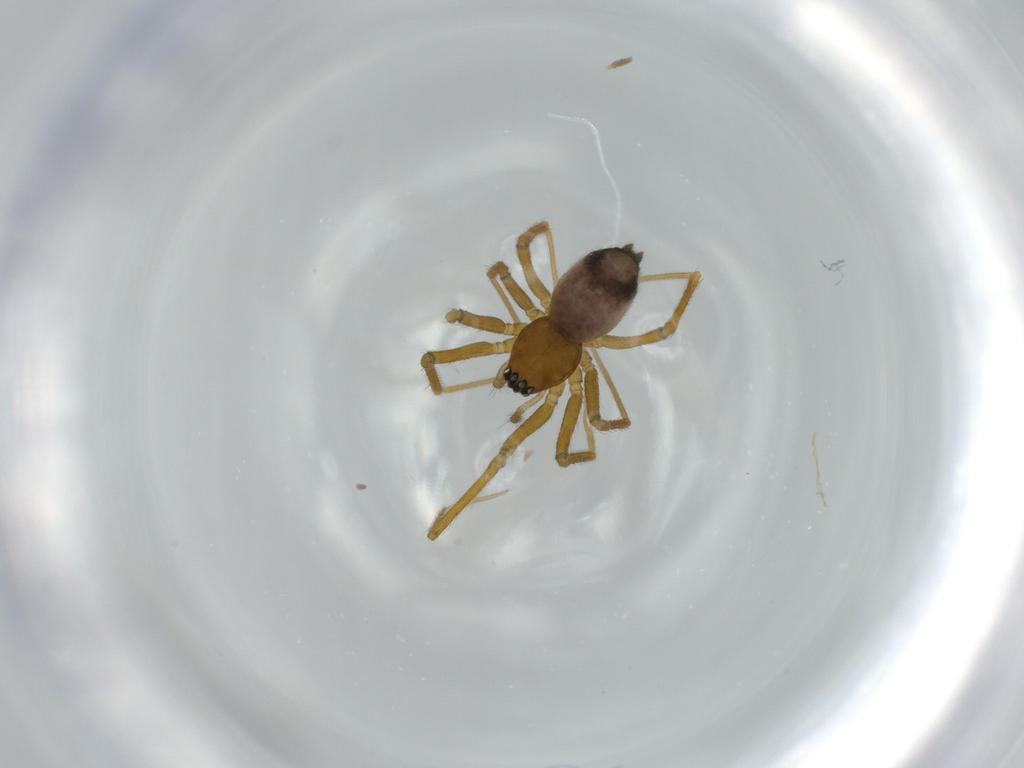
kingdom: Animalia
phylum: Arthropoda
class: Arachnida
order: Araneae
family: Linyphiidae
